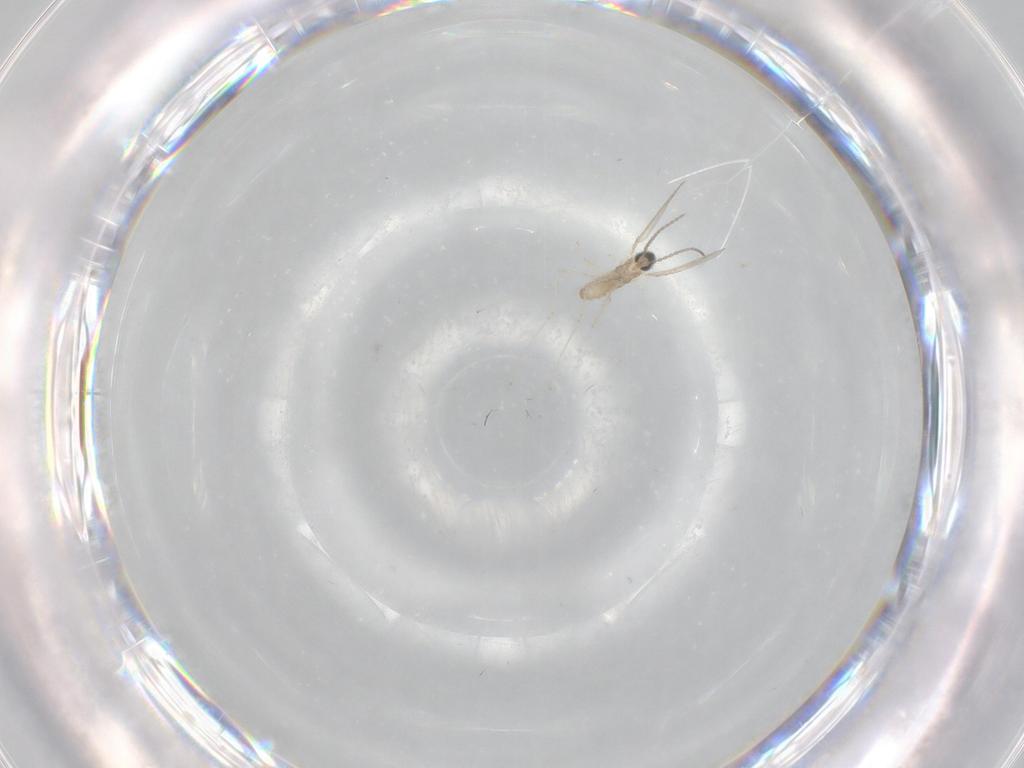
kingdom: Animalia
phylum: Arthropoda
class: Insecta
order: Diptera
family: Cecidomyiidae
